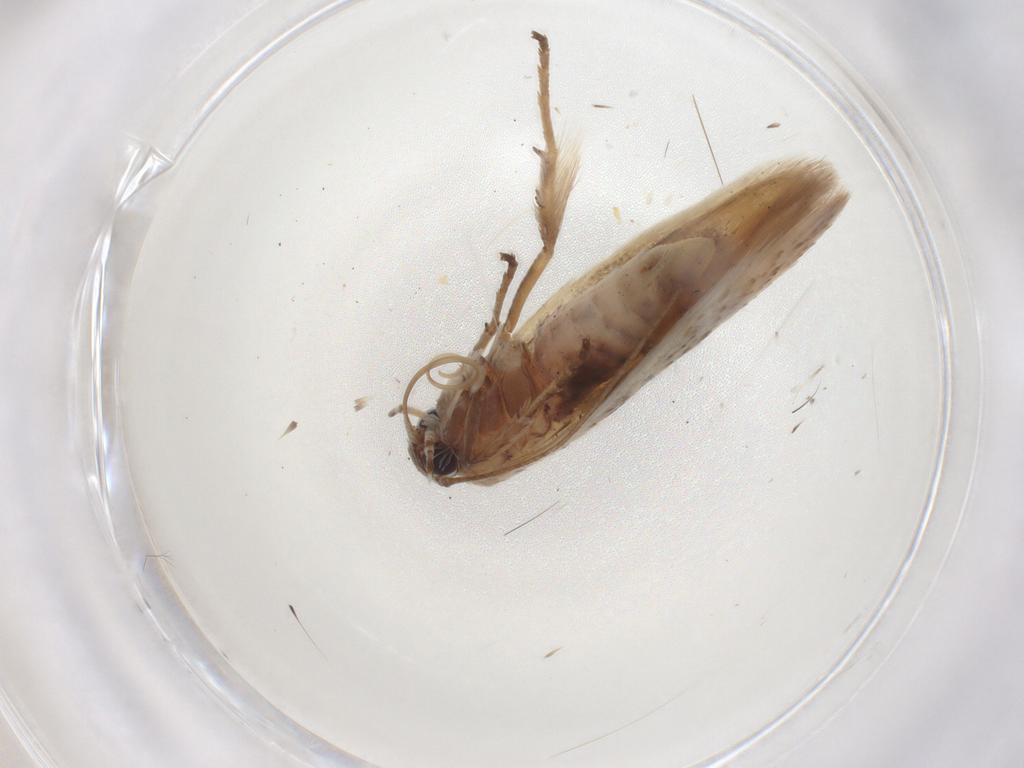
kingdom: Animalia
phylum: Arthropoda
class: Insecta
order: Lepidoptera
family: Scythrididae
